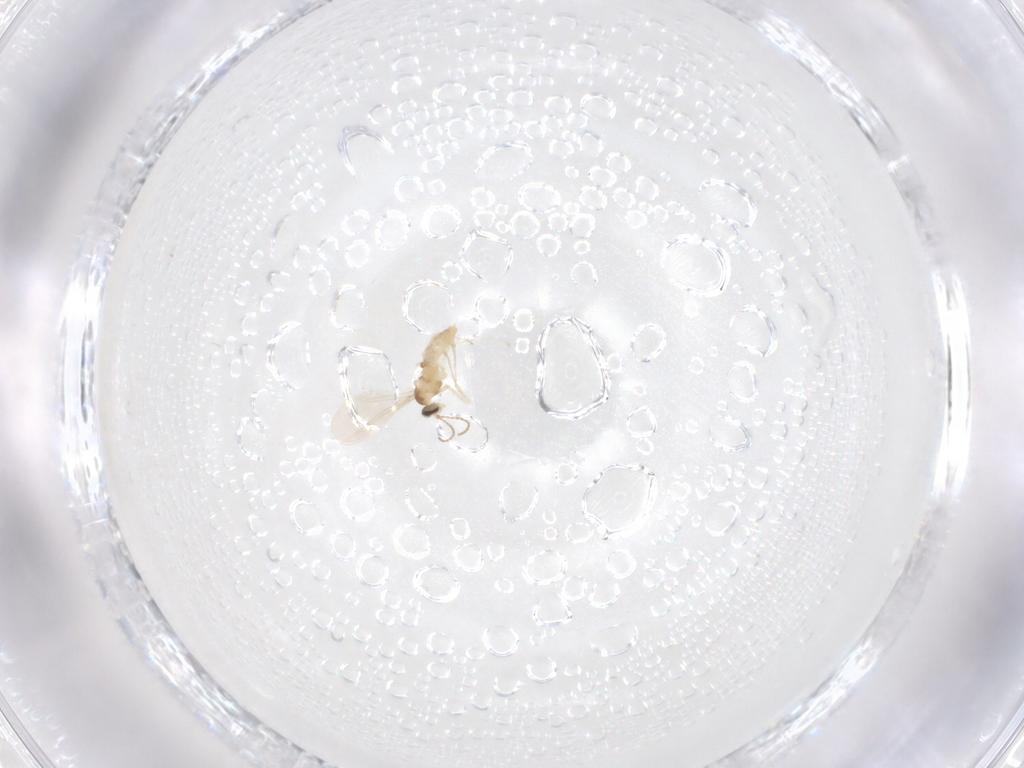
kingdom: Animalia
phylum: Arthropoda
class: Insecta
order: Diptera
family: Cecidomyiidae
